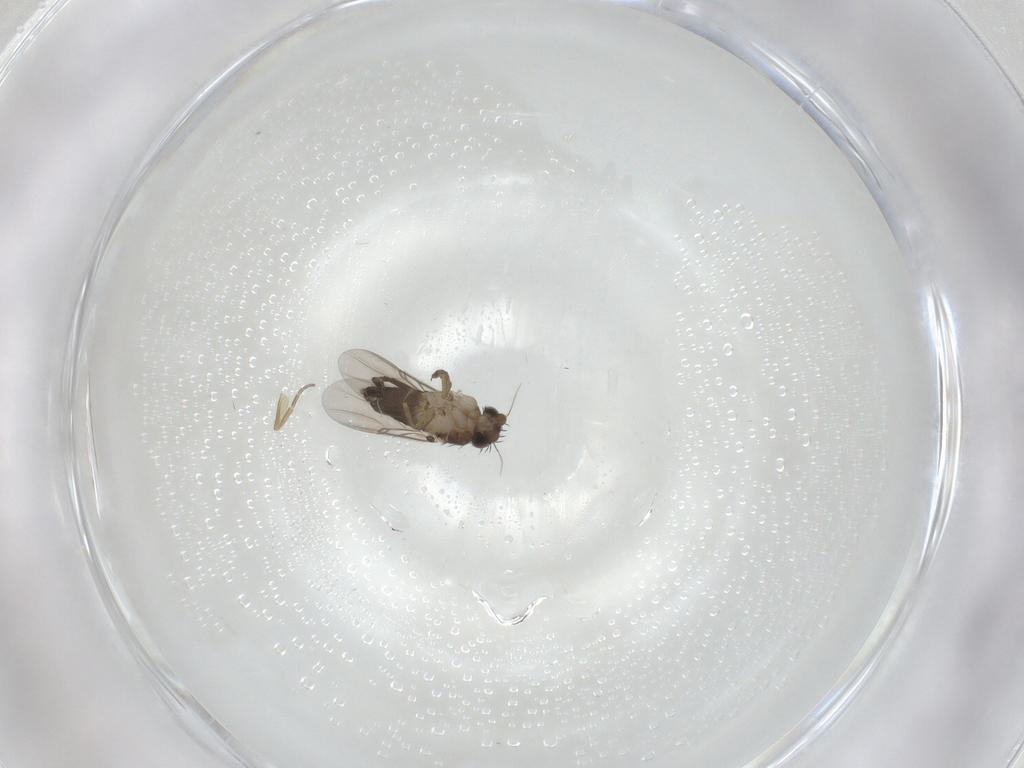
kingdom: Animalia
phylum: Arthropoda
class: Insecta
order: Diptera
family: Phoridae
